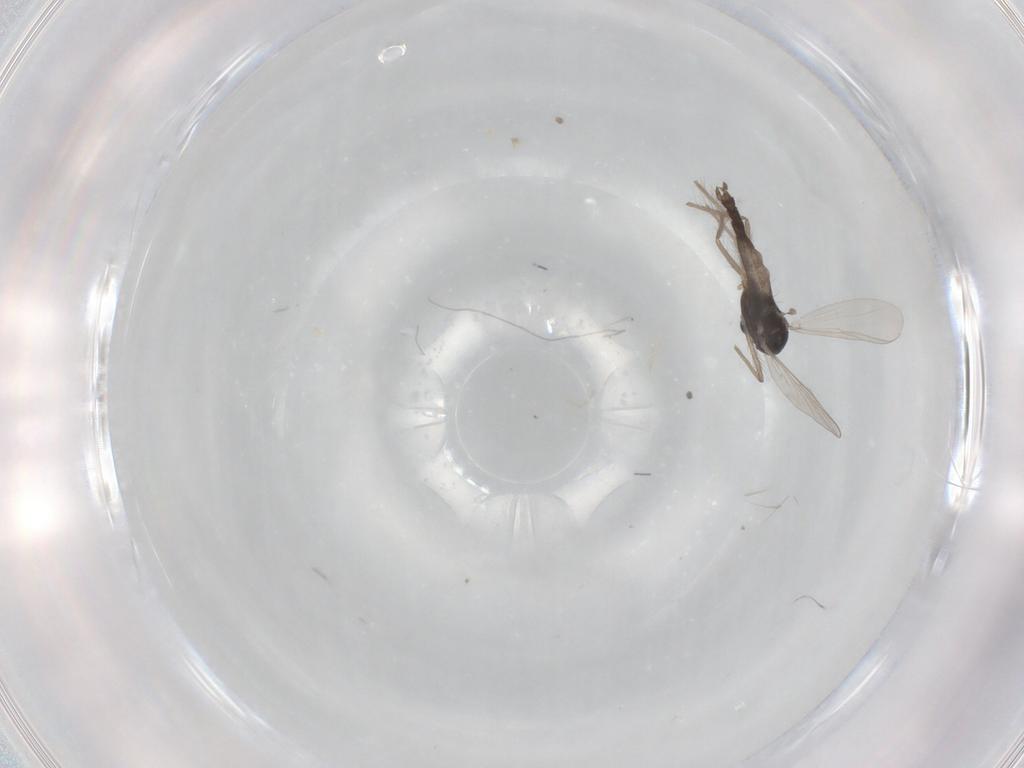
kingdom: Animalia
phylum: Arthropoda
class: Insecta
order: Diptera
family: Chironomidae
